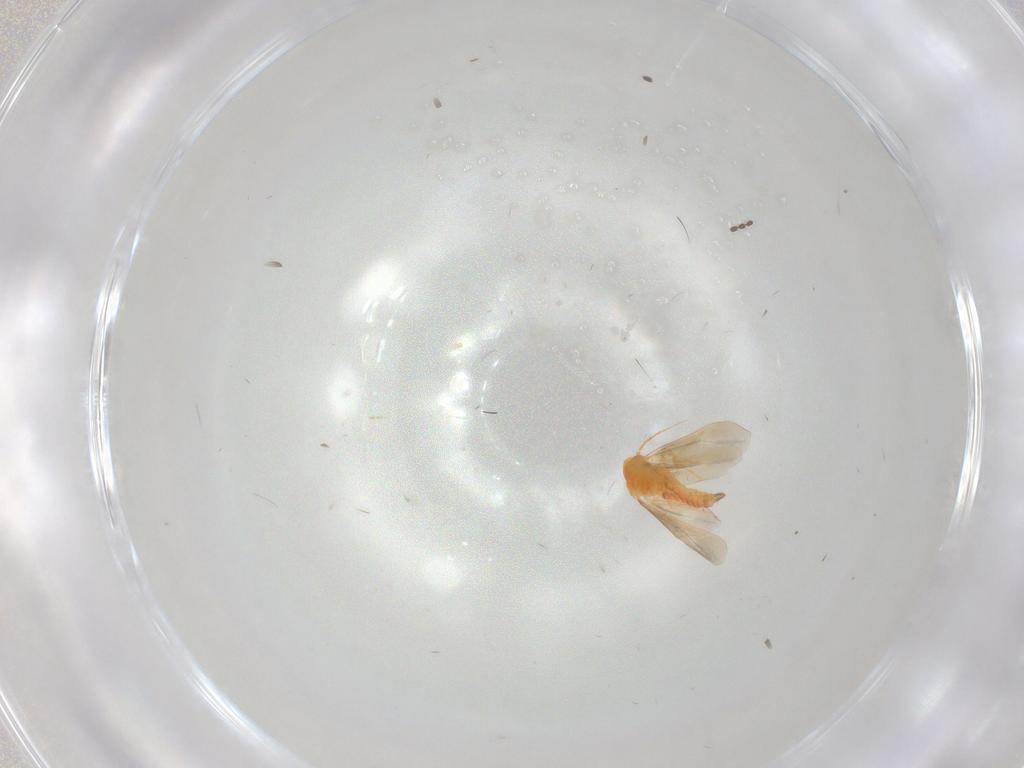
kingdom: Animalia
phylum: Arthropoda
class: Insecta
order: Hemiptera
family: Aleyrodidae
